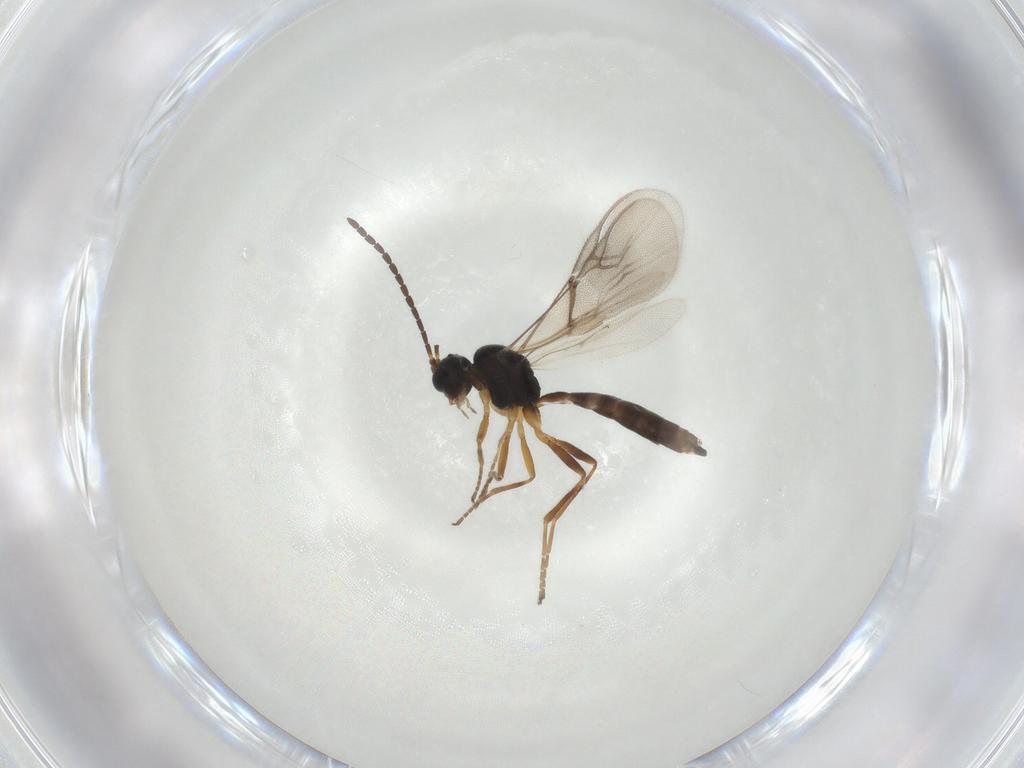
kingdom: Animalia
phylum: Arthropoda
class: Insecta
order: Hymenoptera
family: Braconidae
